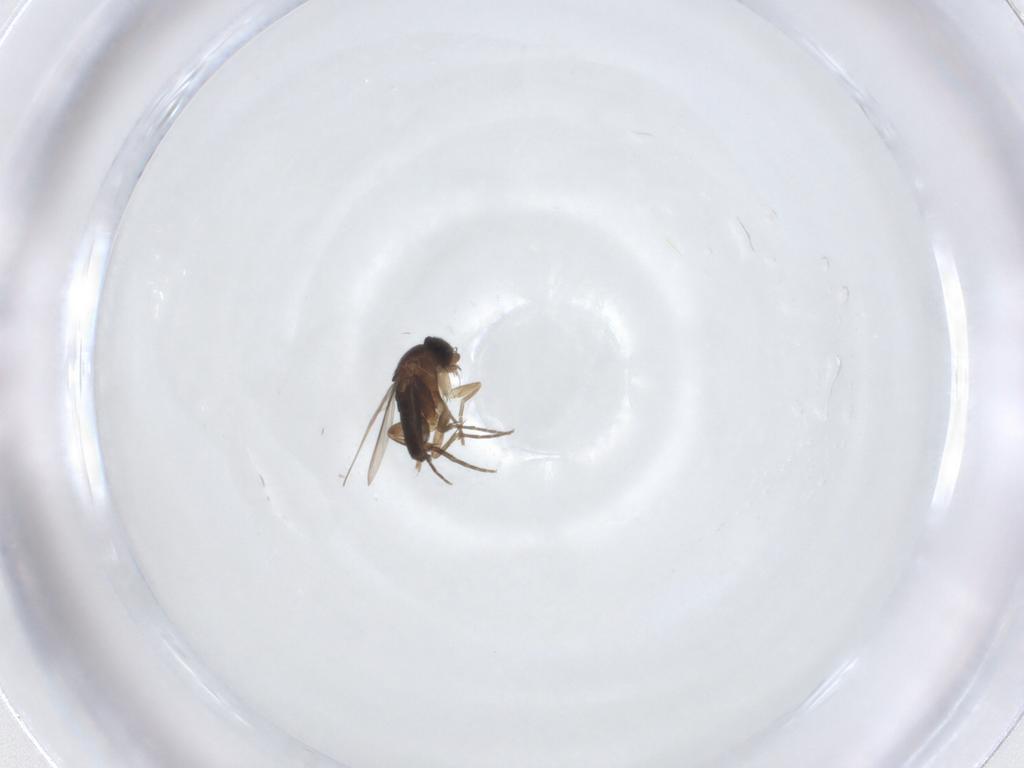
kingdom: Animalia
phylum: Arthropoda
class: Insecta
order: Diptera
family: Phoridae
